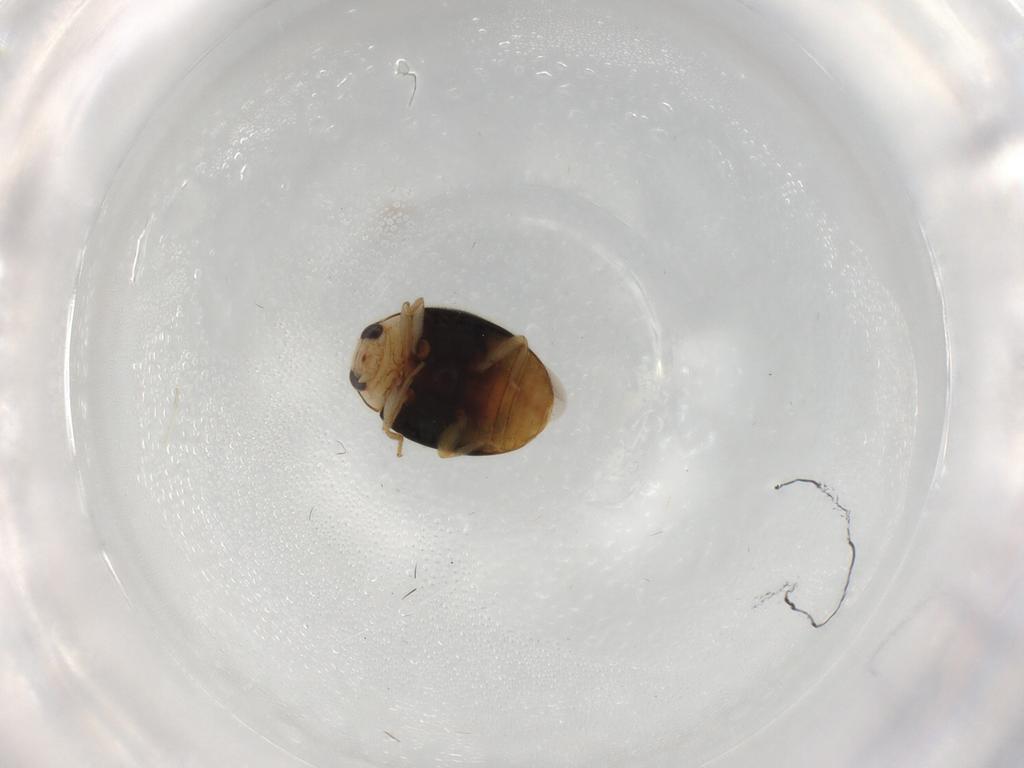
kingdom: Animalia
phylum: Arthropoda
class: Insecta
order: Coleoptera
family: Coccinellidae
